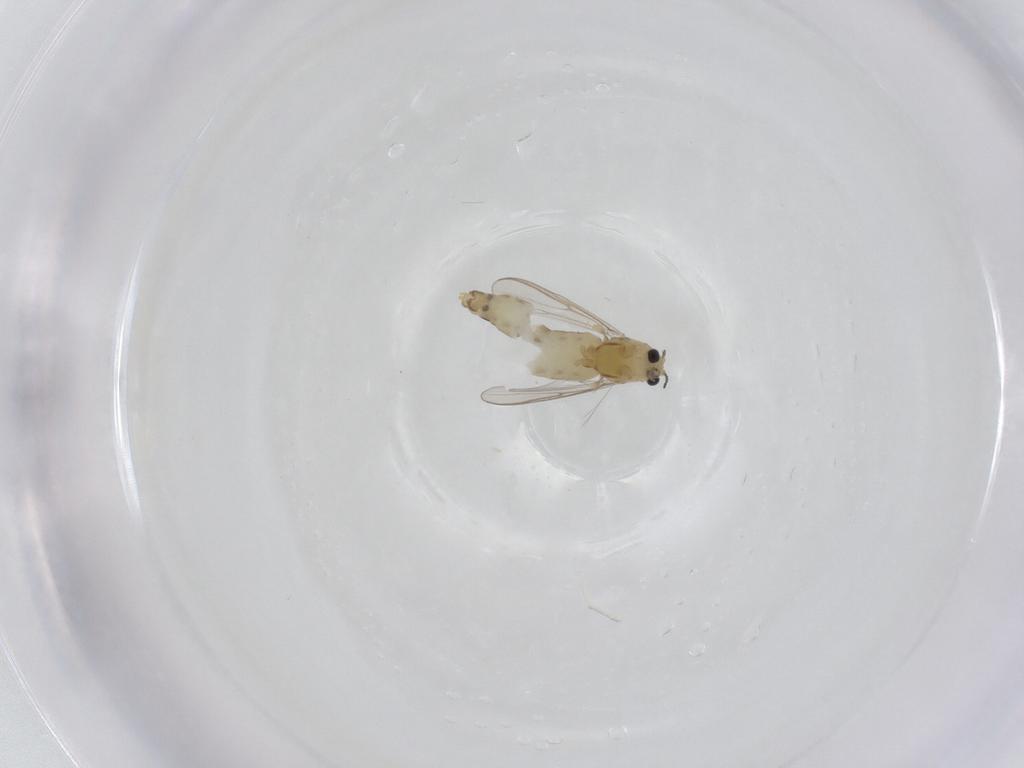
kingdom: Animalia
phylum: Arthropoda
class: Insecta
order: Diptera
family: Chironomidae
